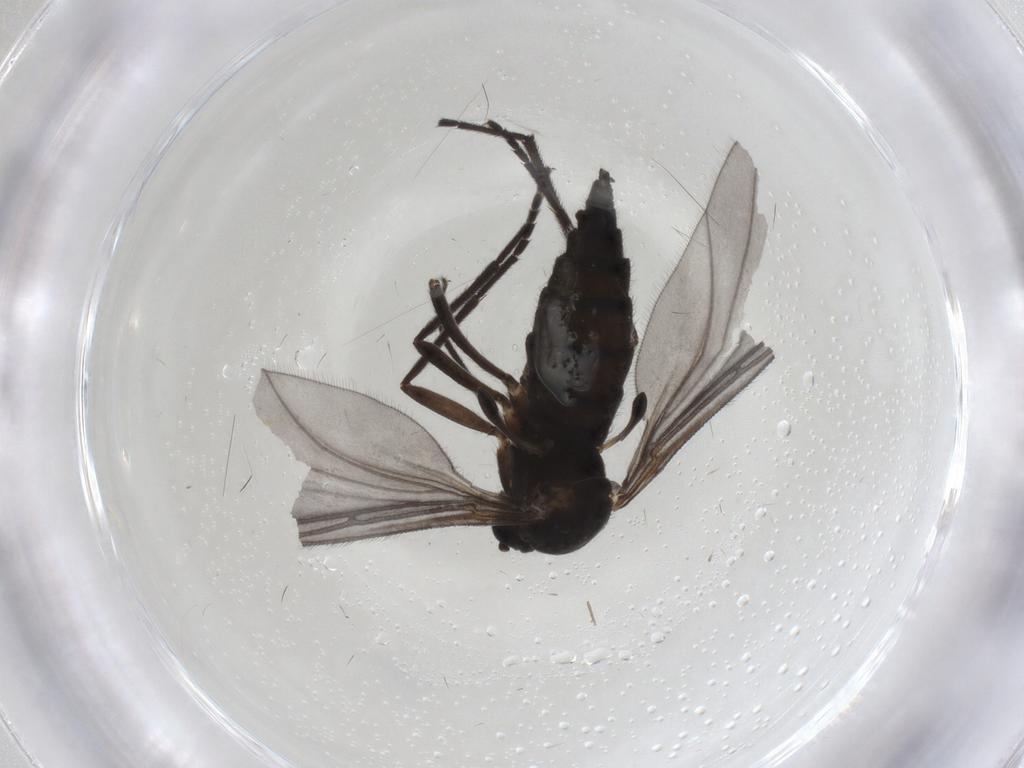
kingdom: Animalia
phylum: Arthropoda
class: Insecta
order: Diptera
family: Sciaridae
